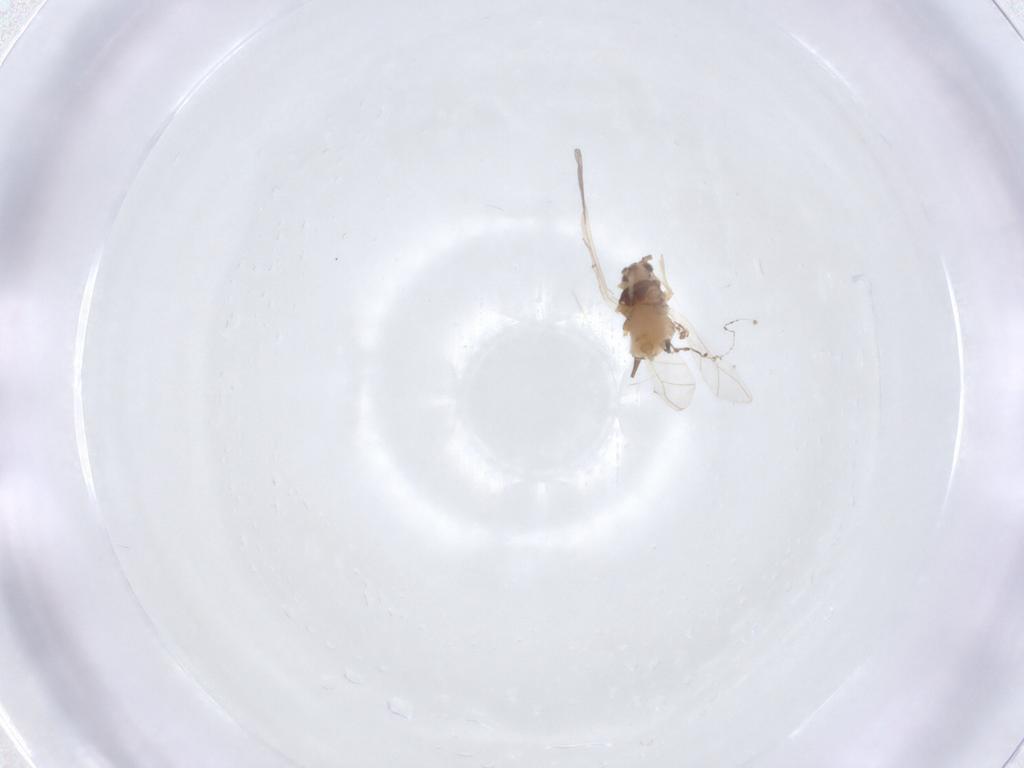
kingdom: Animalia
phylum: Arthropoda
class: Insecta
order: Hemiptera
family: Aphididae
